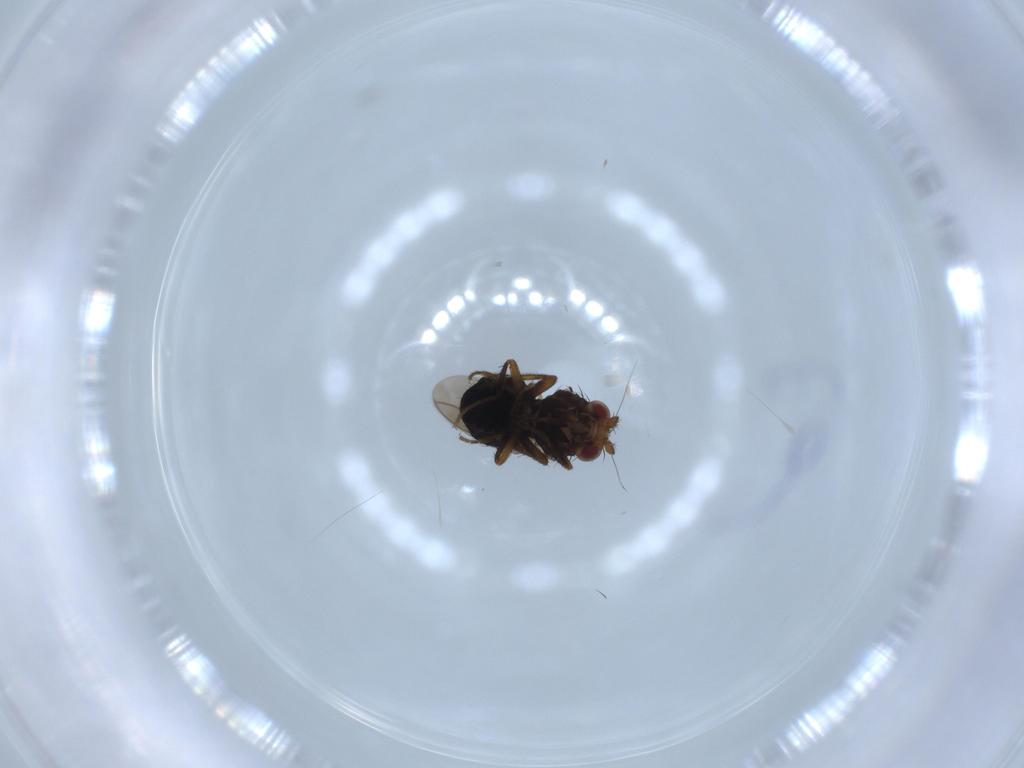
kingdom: Animalia
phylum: Arthropoda
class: Insecta
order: Diptera
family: Sphaeroceridae
